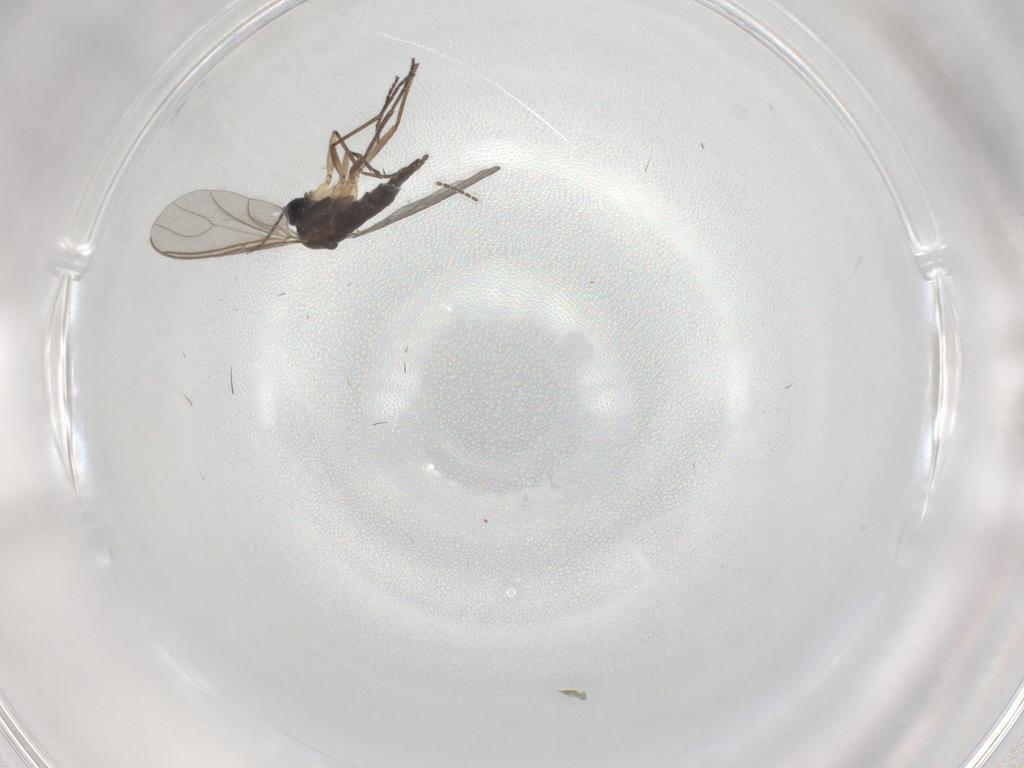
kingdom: Animalia
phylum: Arthropoda
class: Insecta
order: Diptera
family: Sciaridae
